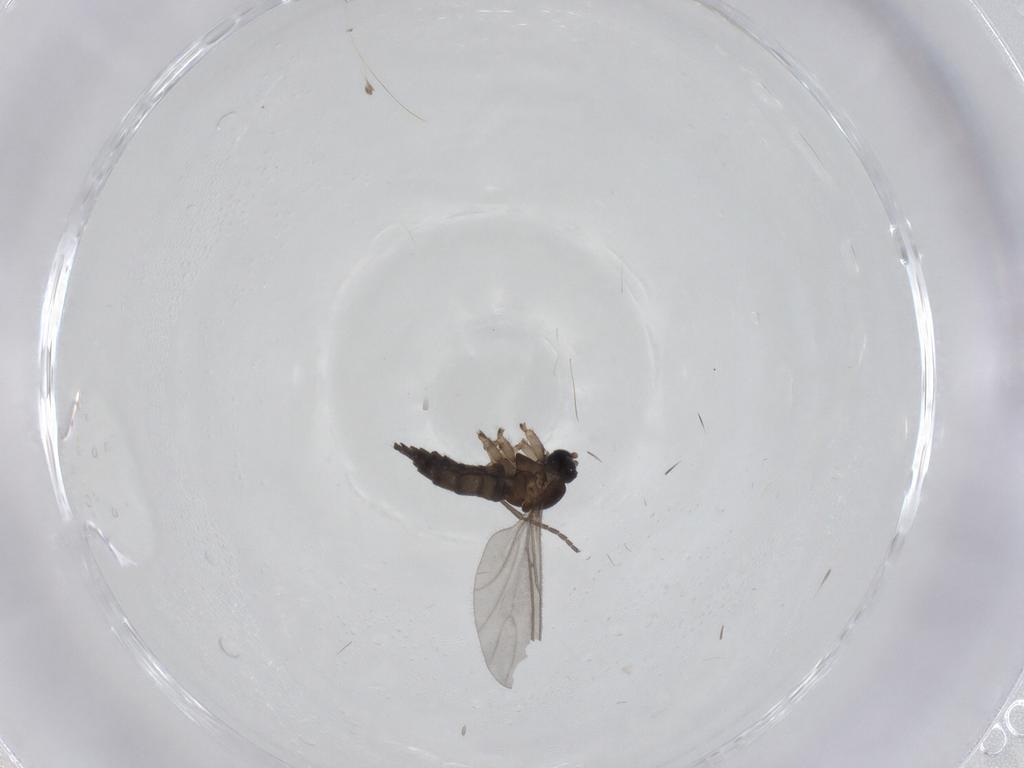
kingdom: Animalia
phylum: Arthropoda
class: Insecta
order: Diptera
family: Sciaridae
